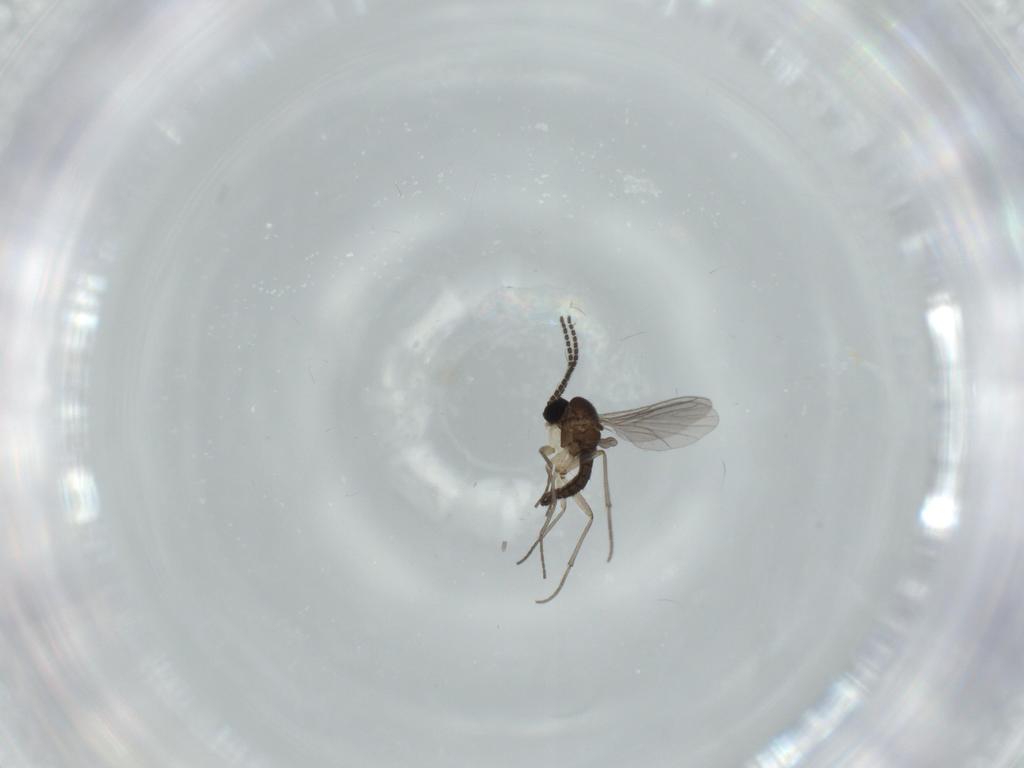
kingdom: Animalia
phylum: Arthropoda
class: Insecta
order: Diptera
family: Sciaridae
